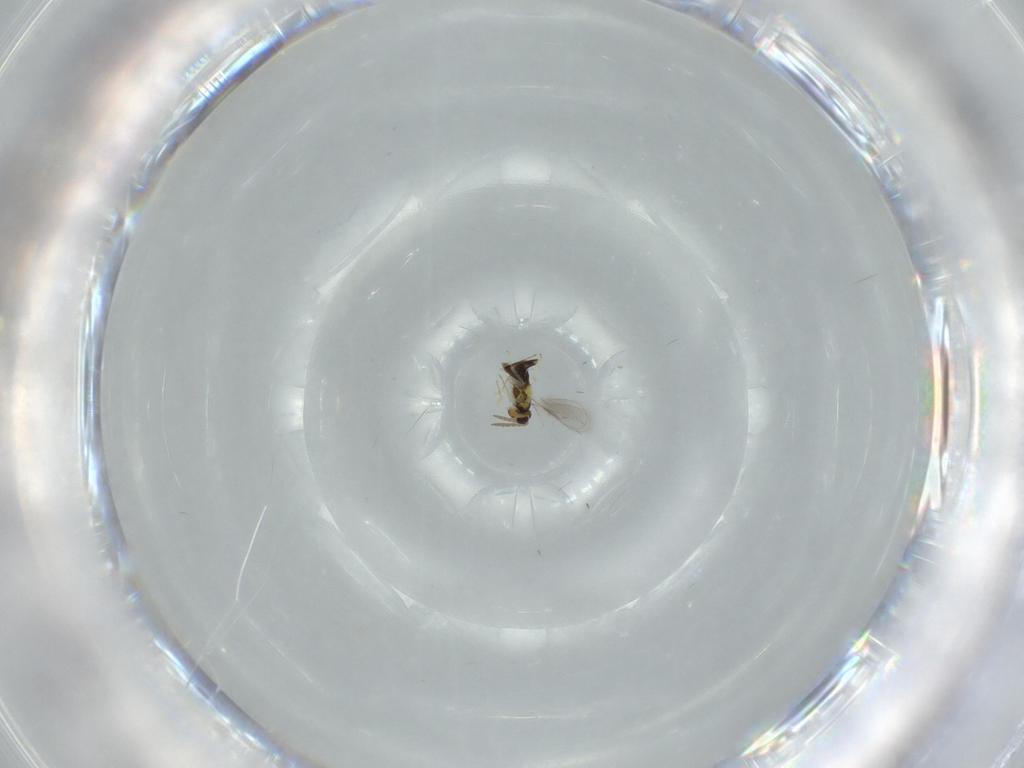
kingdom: Animalia
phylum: Arthropoda
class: Insecta
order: Hymenoptera
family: Aphelinidae
